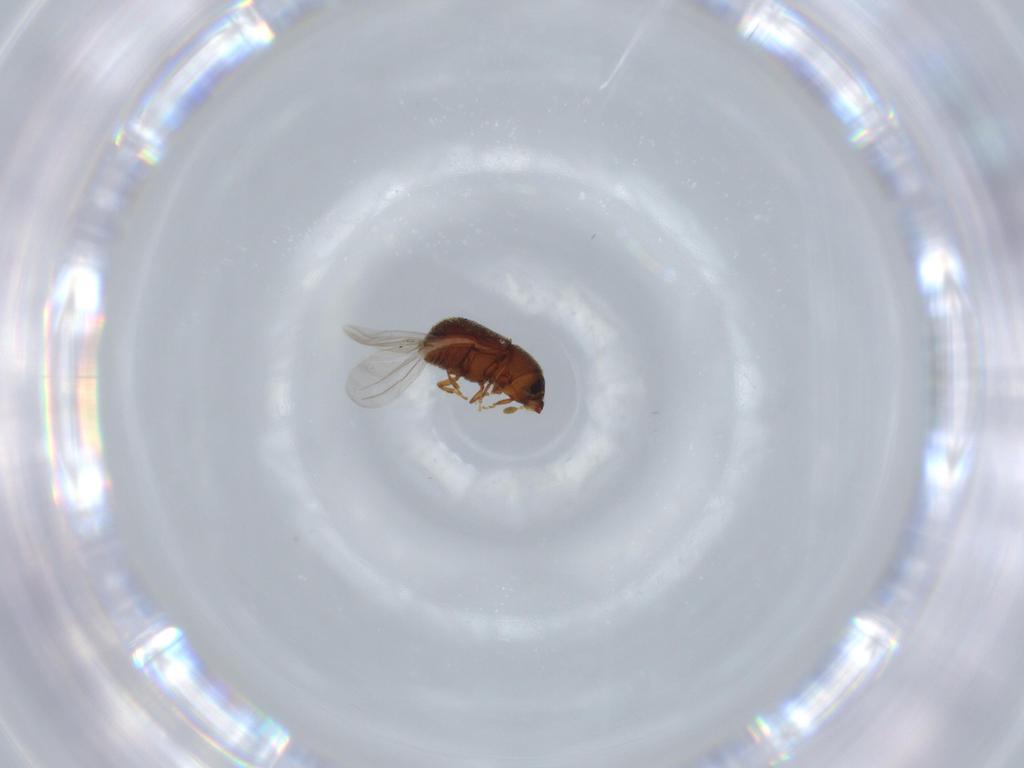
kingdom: Animalia
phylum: Arthropoda
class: Insecta
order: Coleoptera
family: Curculionidae
